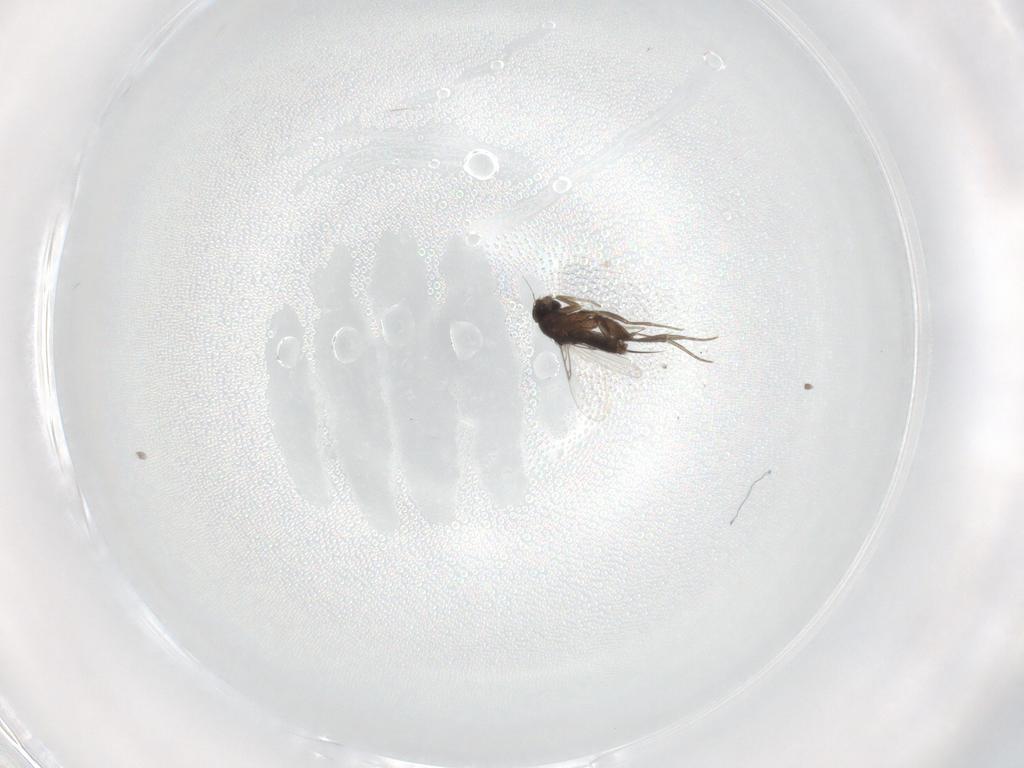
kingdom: Animalia
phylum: Arthropoda
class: Insecta
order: Diptera
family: Phoridae
